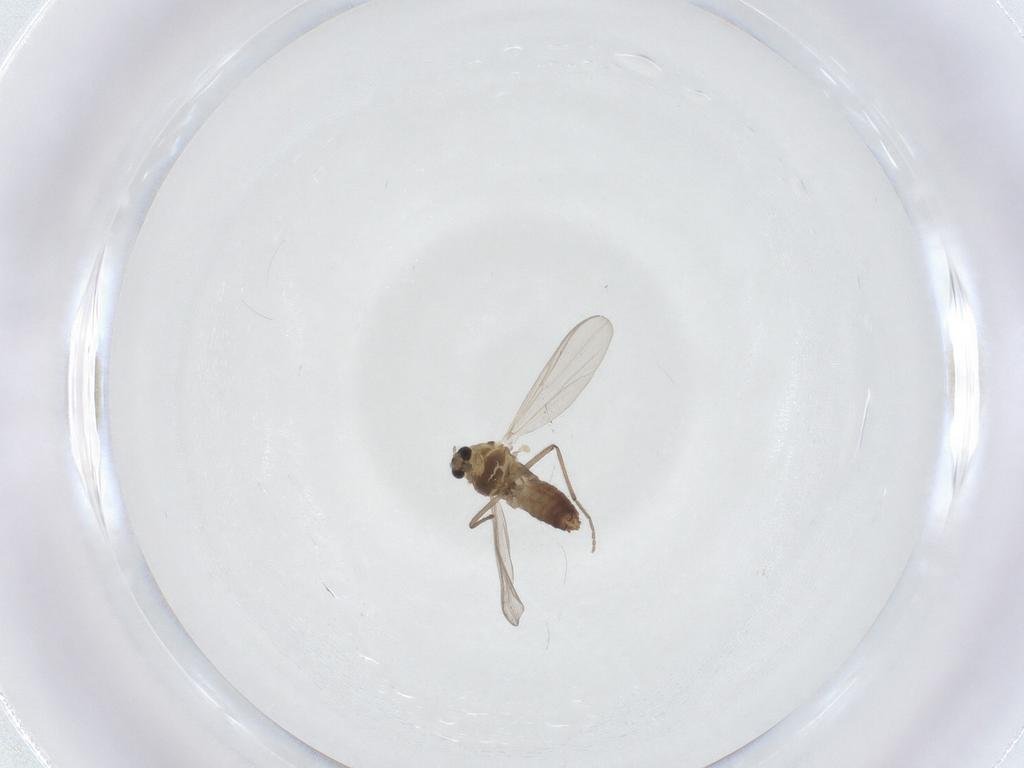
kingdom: Animalia
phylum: Arthropoda
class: Insecta
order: Diptera
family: Chironomidae
